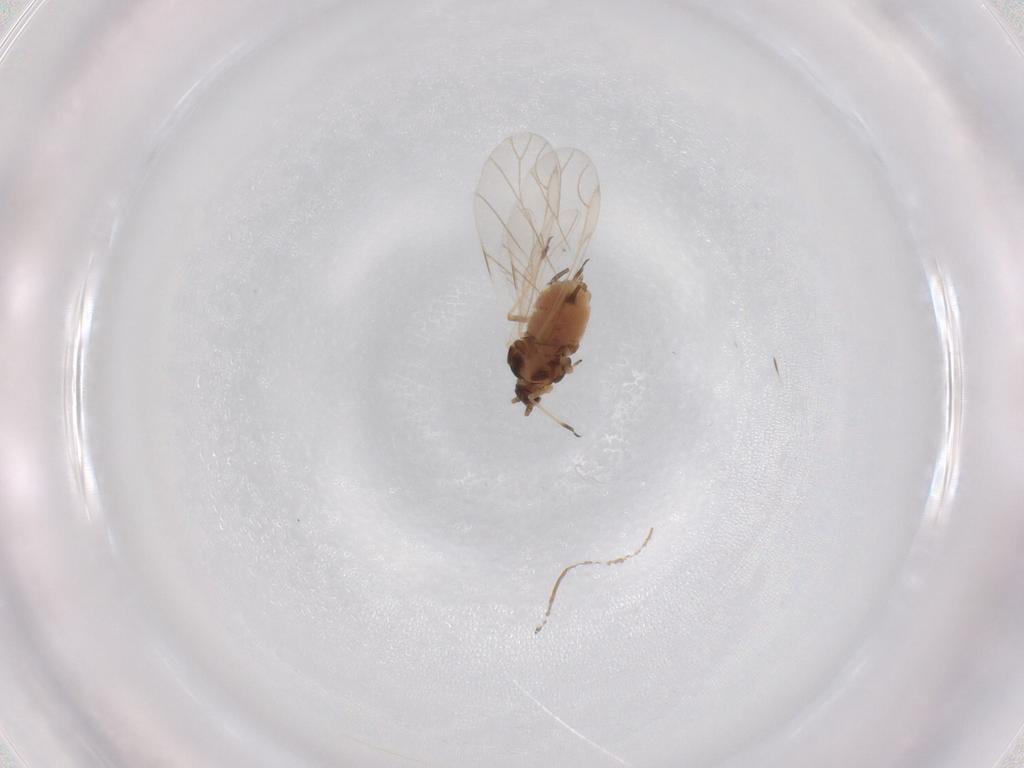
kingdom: Animalia
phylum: Arthropoda
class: Insecta
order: Hemiptera
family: Aphididae
